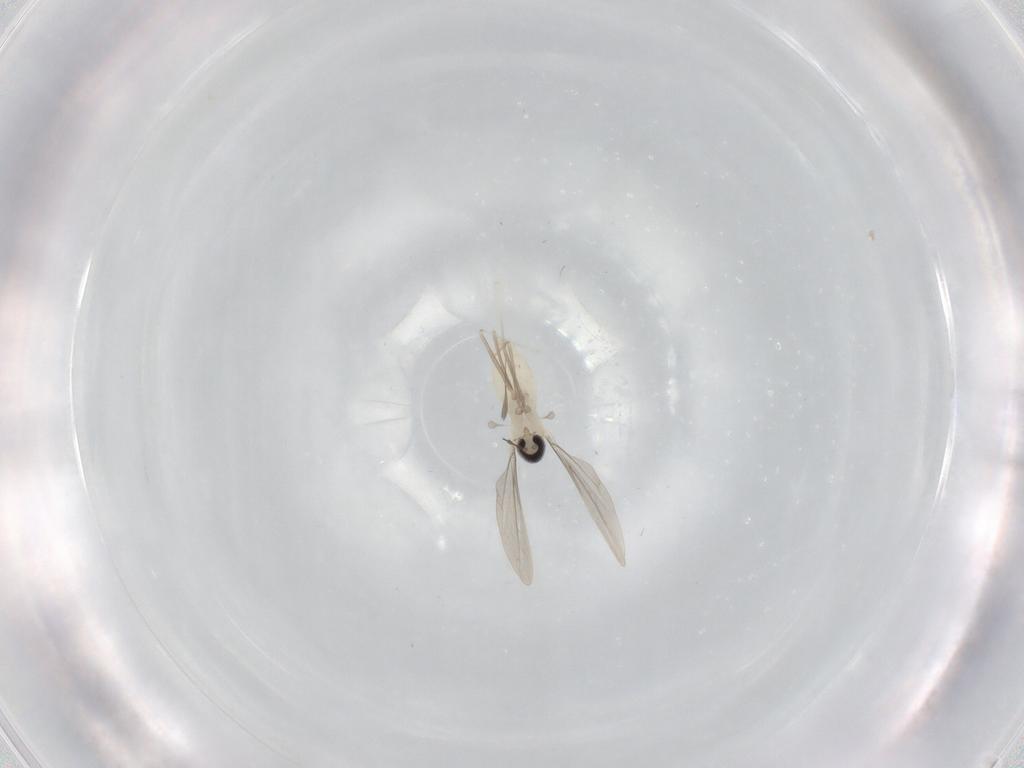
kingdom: Animalia
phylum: Arthropoda
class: Insecta
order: Diptera
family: Cecidomyiidae
